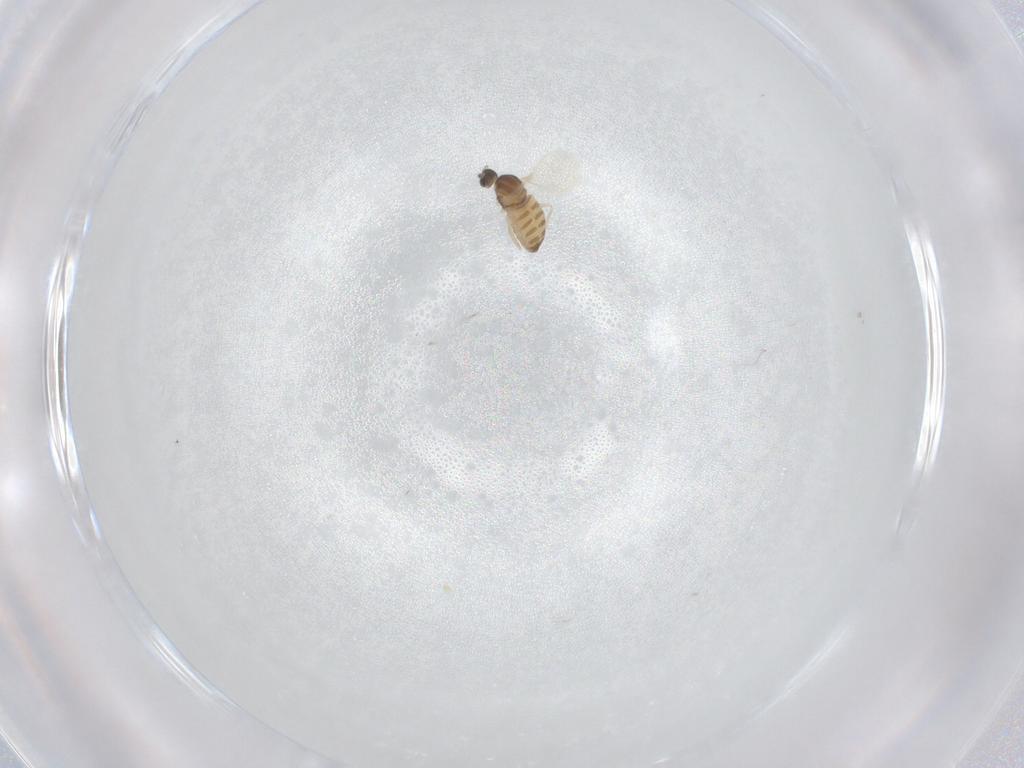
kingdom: Animalia
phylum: Arthropoda
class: Insecta
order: Diptera
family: Cecidomyiidae
